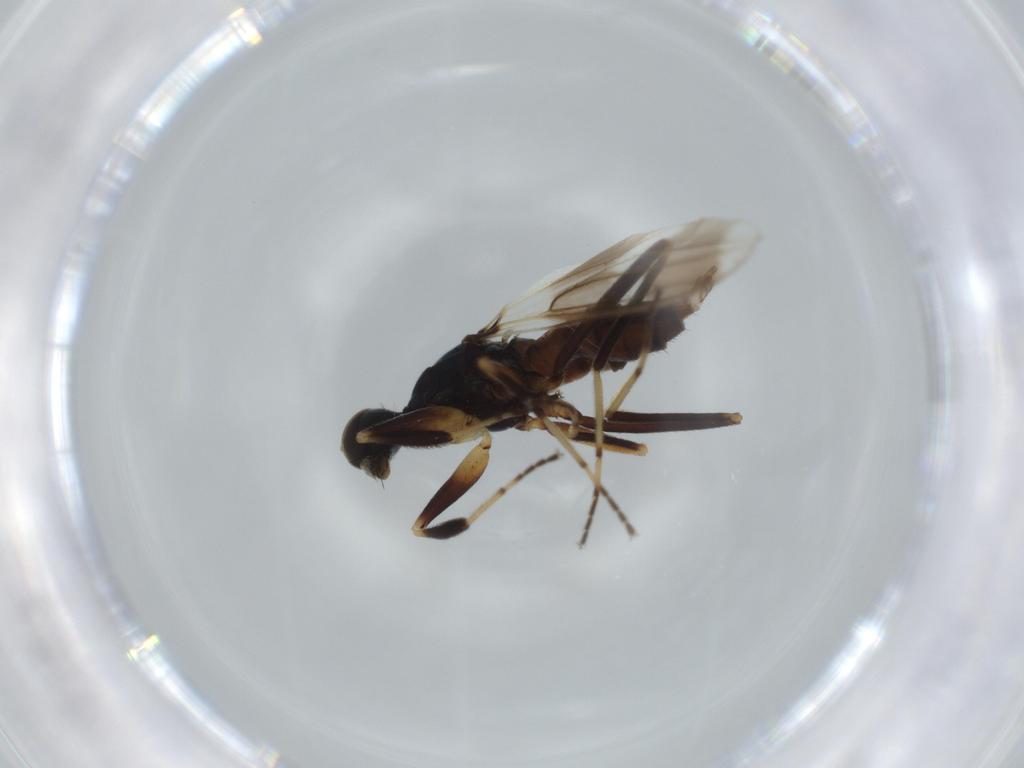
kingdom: Animalia
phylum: Arthropoda
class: Insecta
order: Diptera
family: Hybotidae
